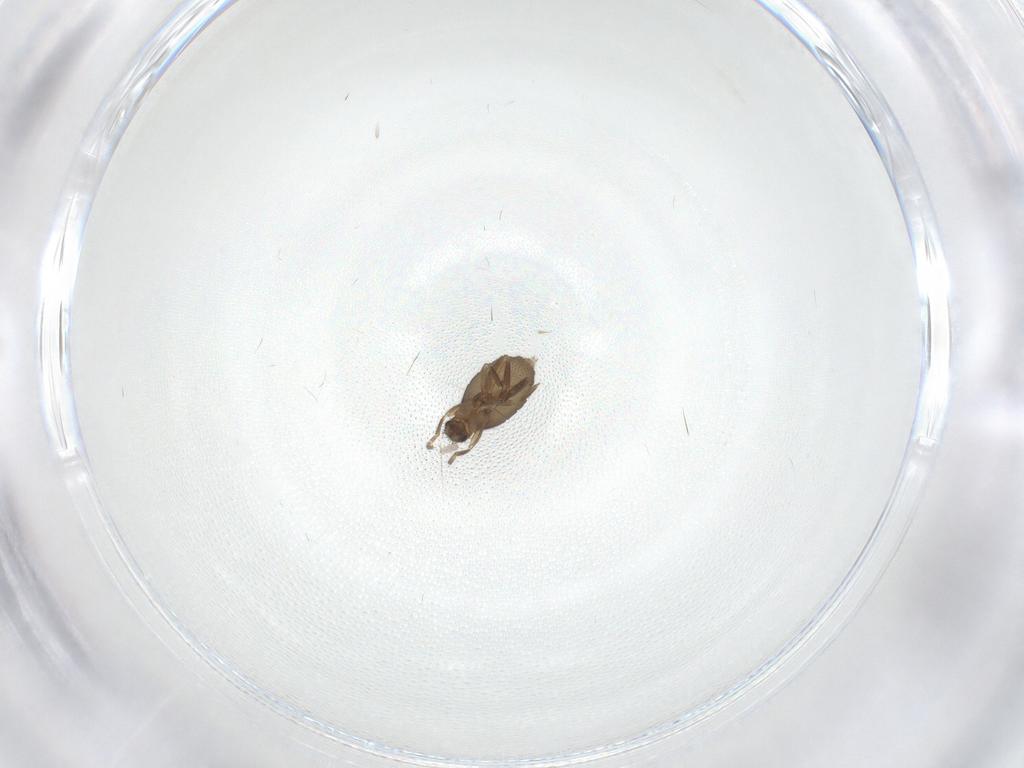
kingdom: Animalia
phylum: Arthropoda
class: Insecta
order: Diptera
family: Phoridae
